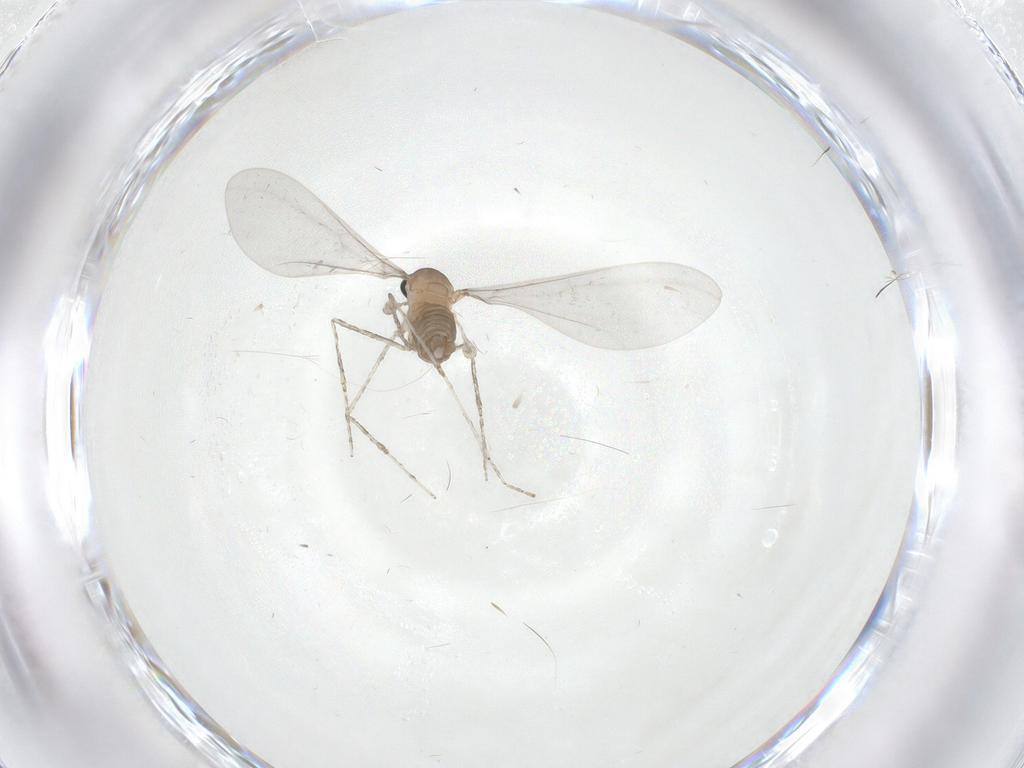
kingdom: Animalia
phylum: Arthropoda
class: Insecta
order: Diptera
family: Cecidomyiidae
